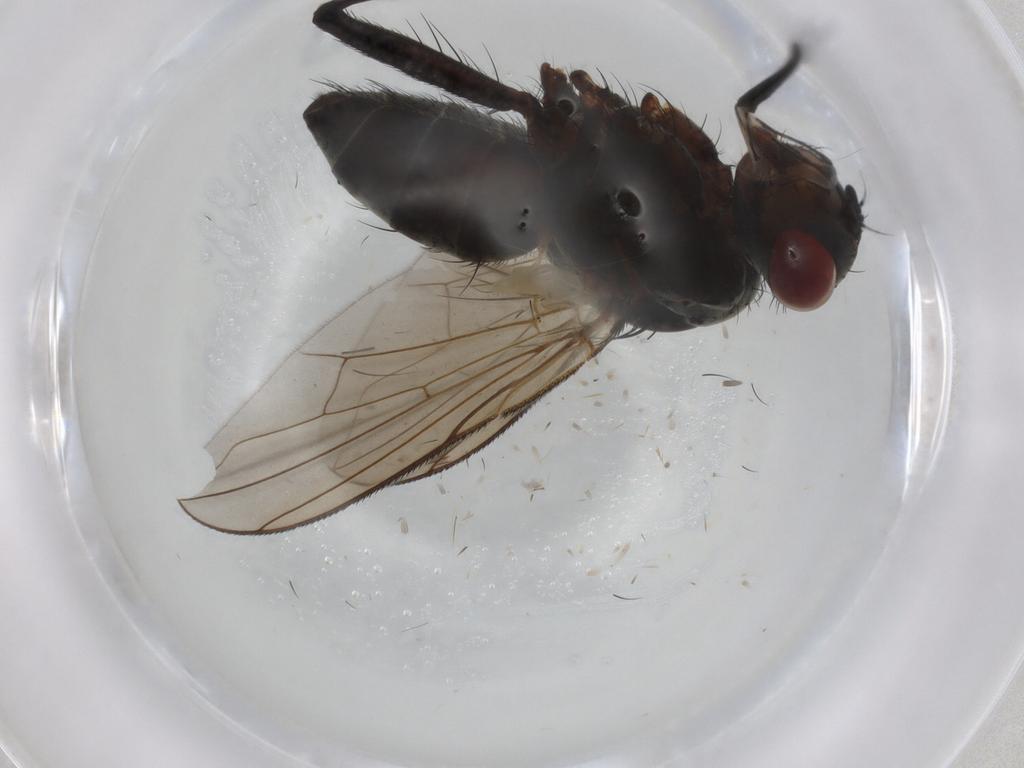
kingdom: Animalia
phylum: Arthropoda
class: Insecta
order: Diptera
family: Tachinidae
